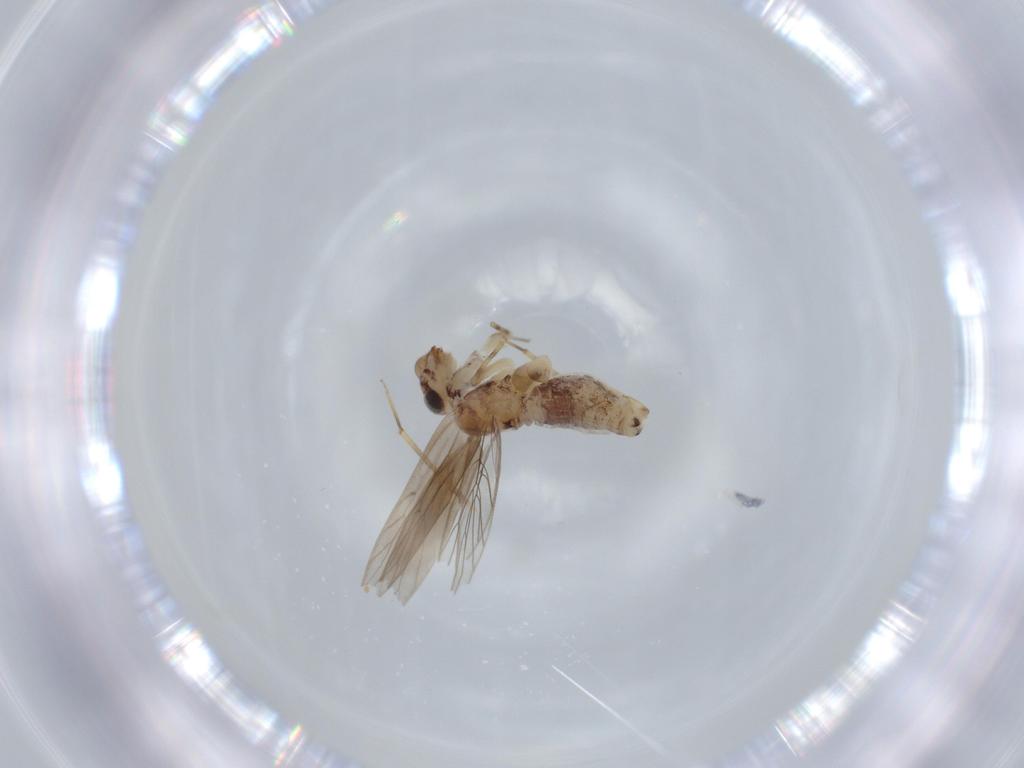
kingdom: Animalia
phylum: Arthropoda
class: Insecta
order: Psocodea
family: Lepidopsocidae
